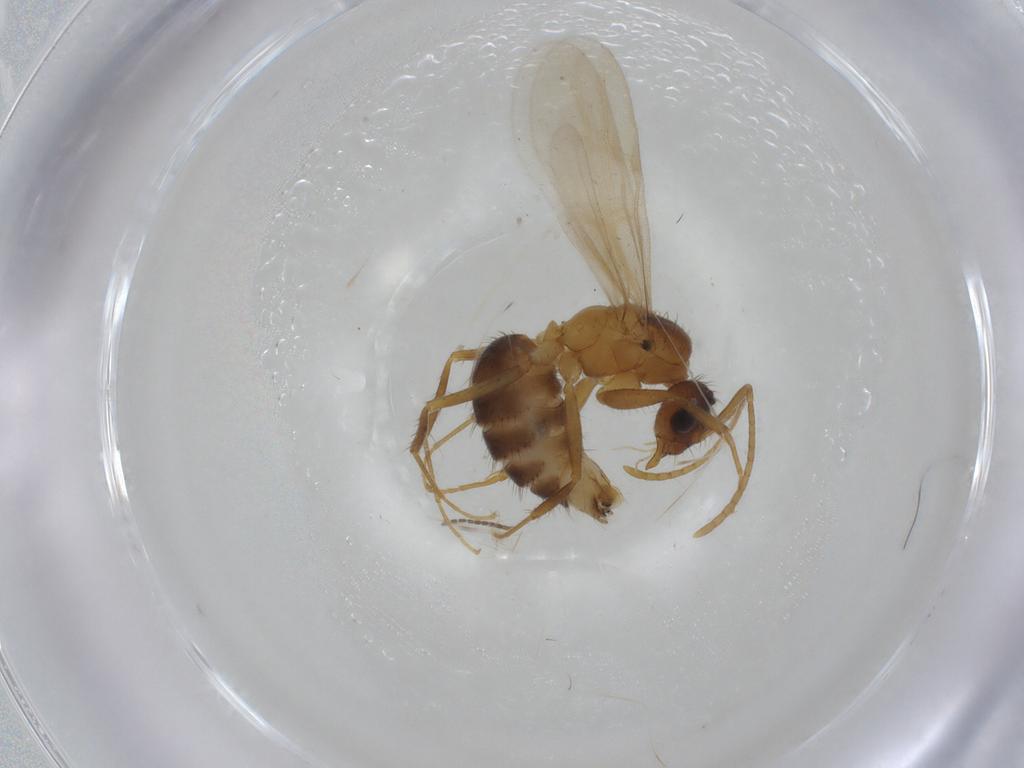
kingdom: Animalia
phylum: Arthropoda
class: Insecta
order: Hymenoptera
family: Formicidae
